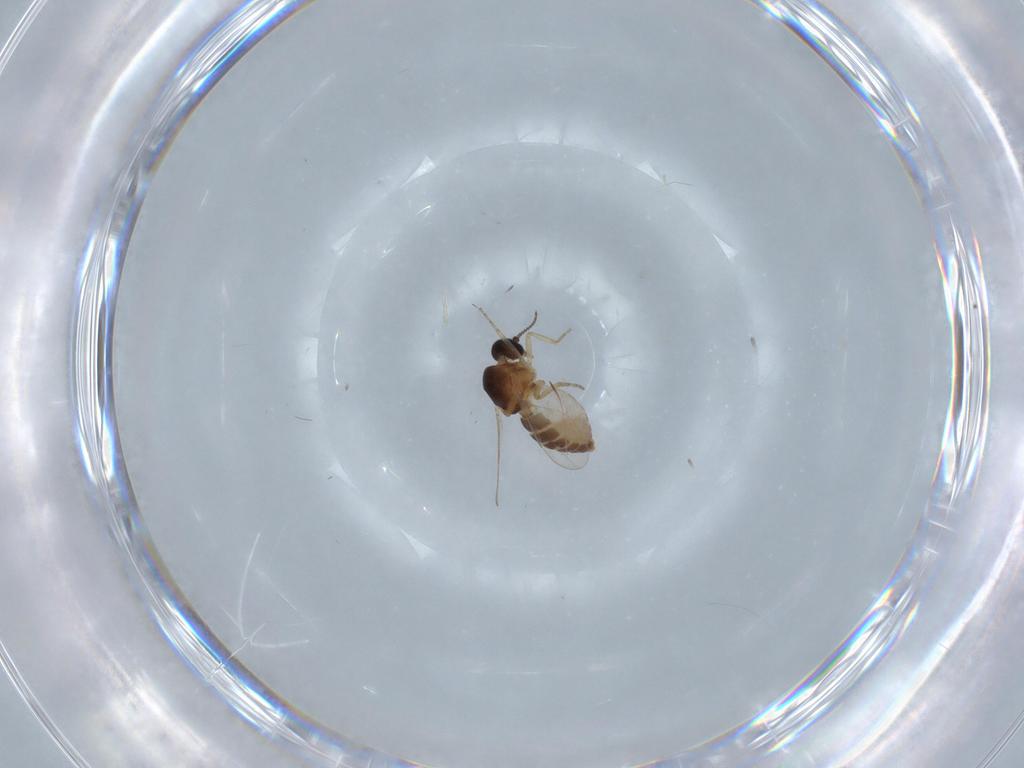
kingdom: Animalia
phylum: Arthropoda
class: Insecta
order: Diptera
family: Ceratopogonidae
